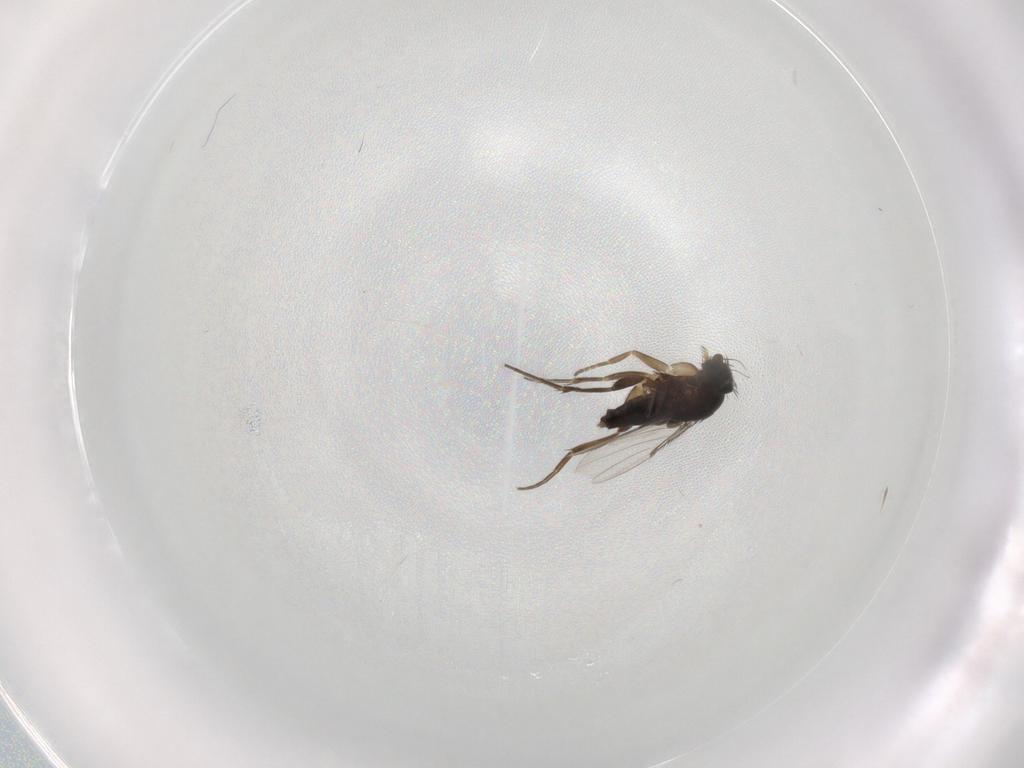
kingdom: Animalia
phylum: Arthropoda
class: Insecta
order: Diptera
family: Phoridae
